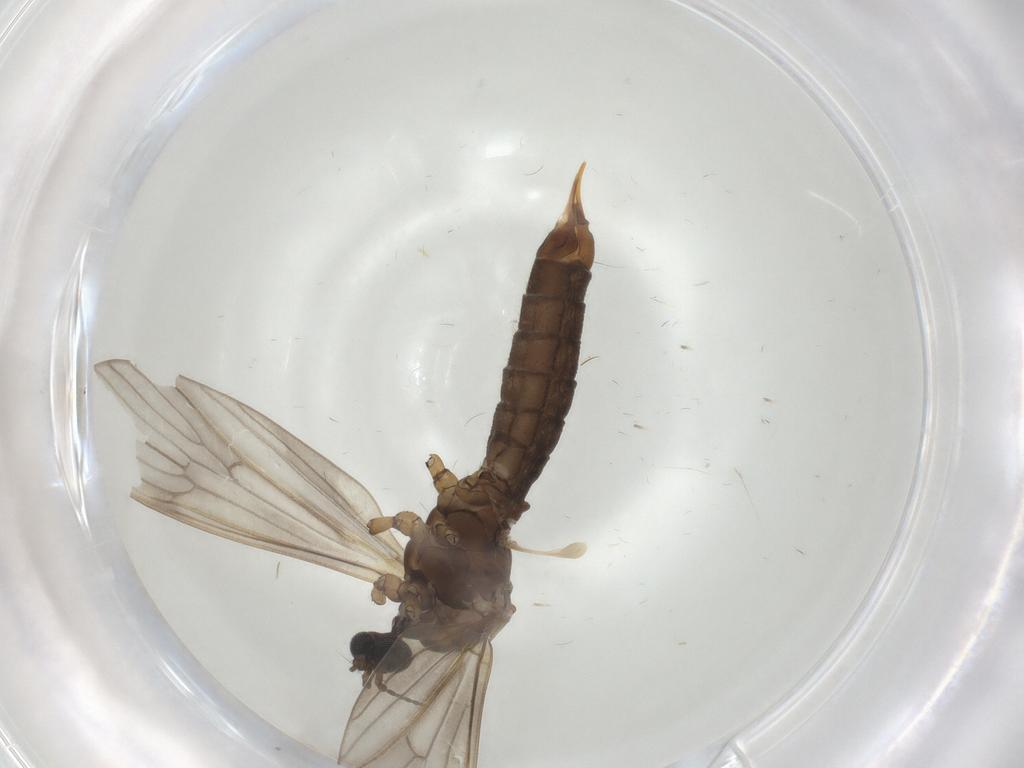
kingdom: Animalia
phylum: Arthropoda
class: Insecta
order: Diptera
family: Limoniidae
